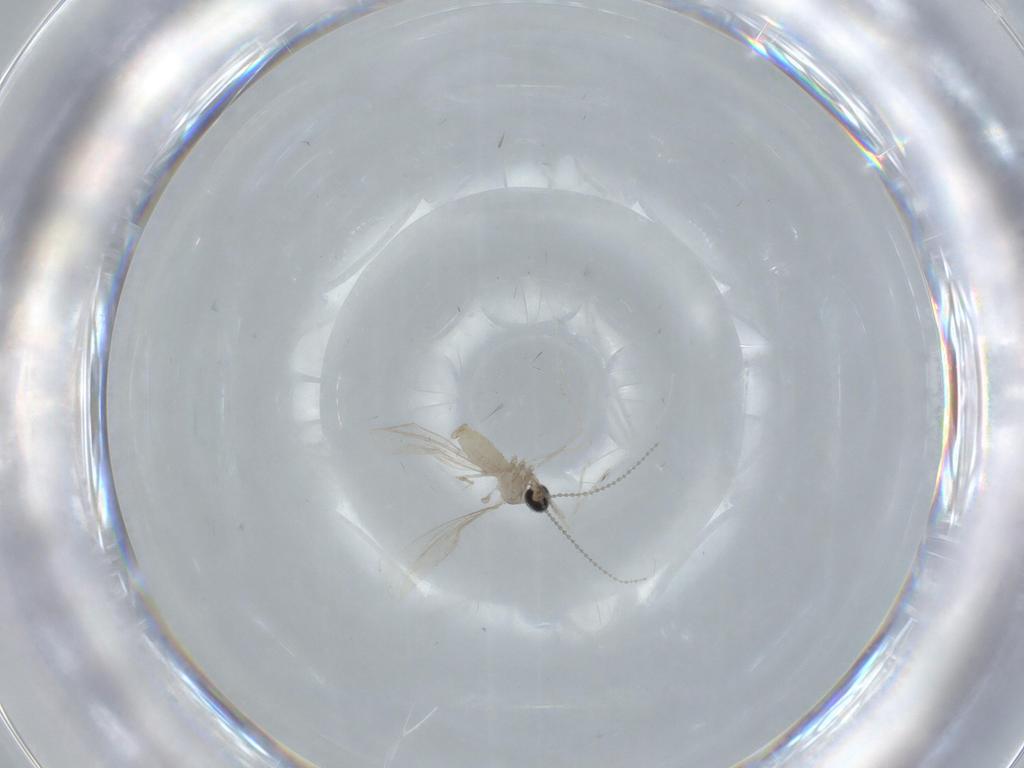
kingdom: Animalia
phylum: Arthropoda
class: Insecta
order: Diptera
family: Cecidomyiidae
